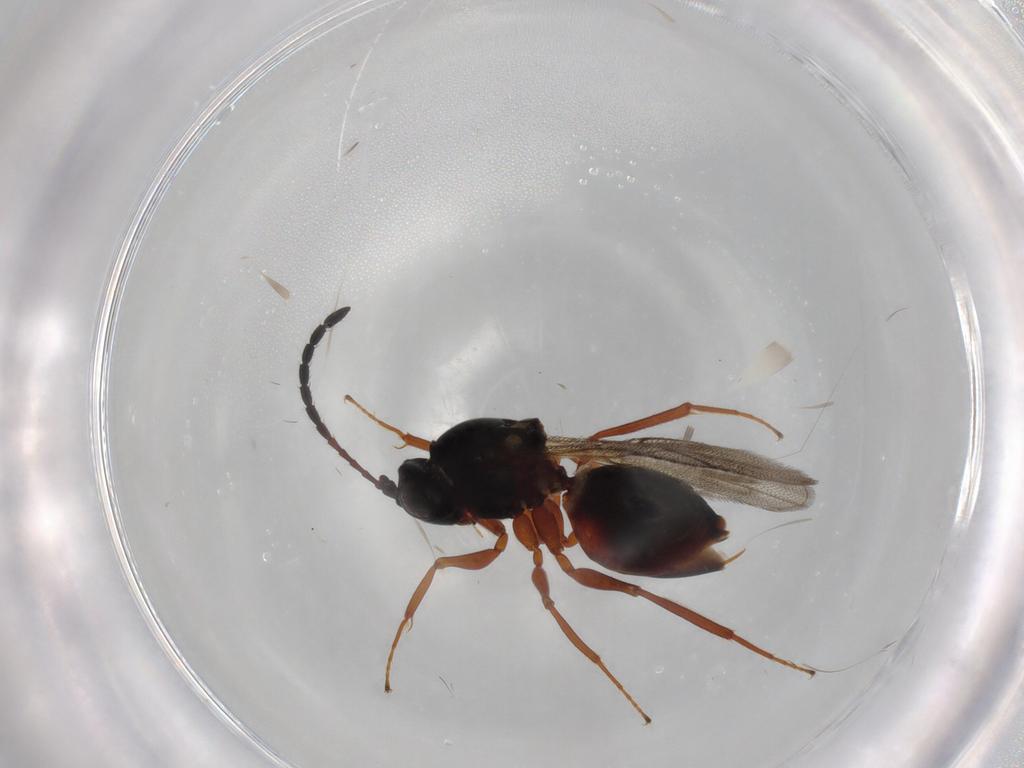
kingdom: Animalia
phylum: Arthropoda
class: Insecta
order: Hymenoptera
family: Figitidae
